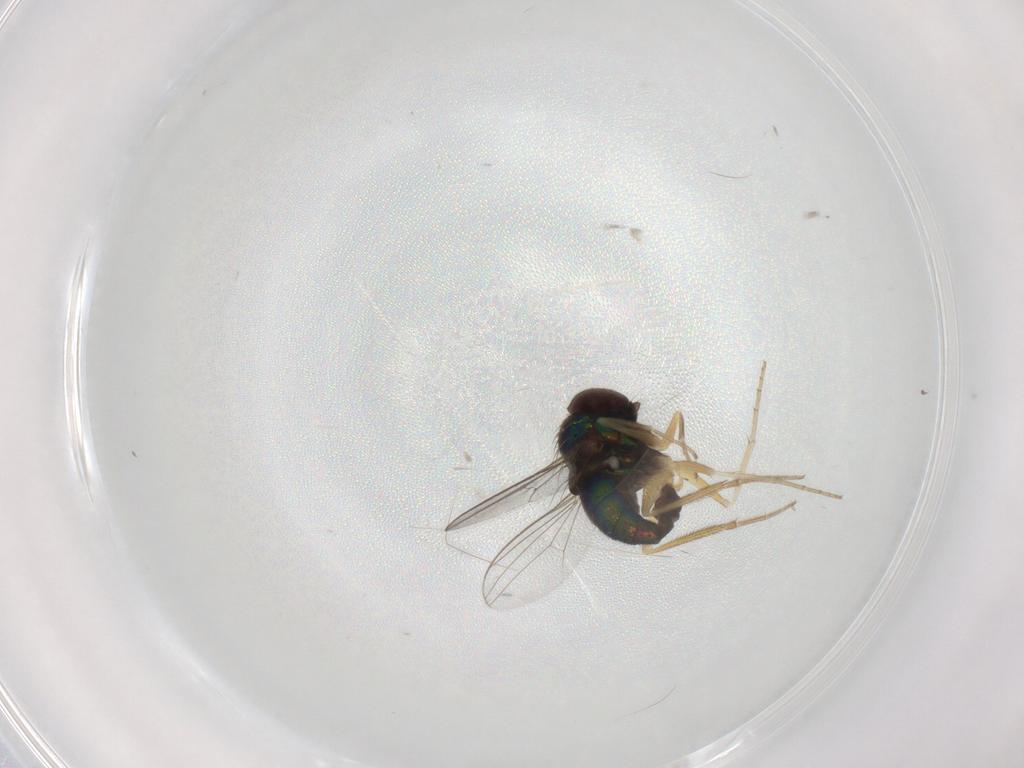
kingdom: Animalia
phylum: Arthropoda
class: Insecta
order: Diptera
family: Dolichopodidae
